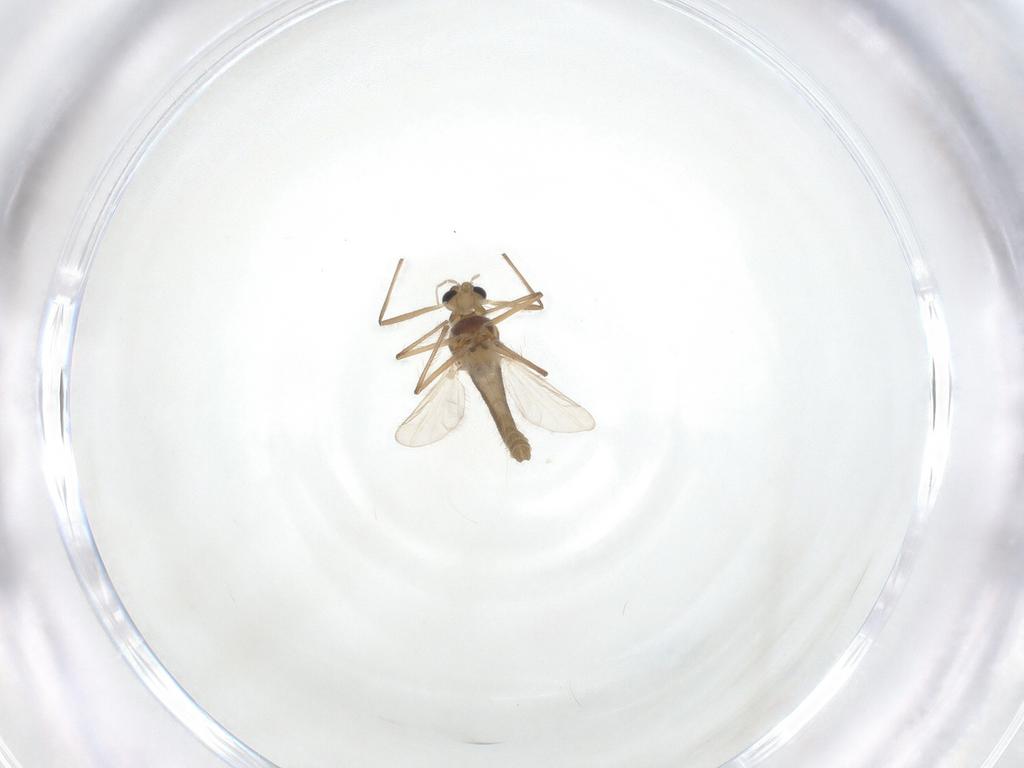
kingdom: Animalia
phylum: Arthropoda
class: Insecta
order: Diptera
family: Chironomidae
